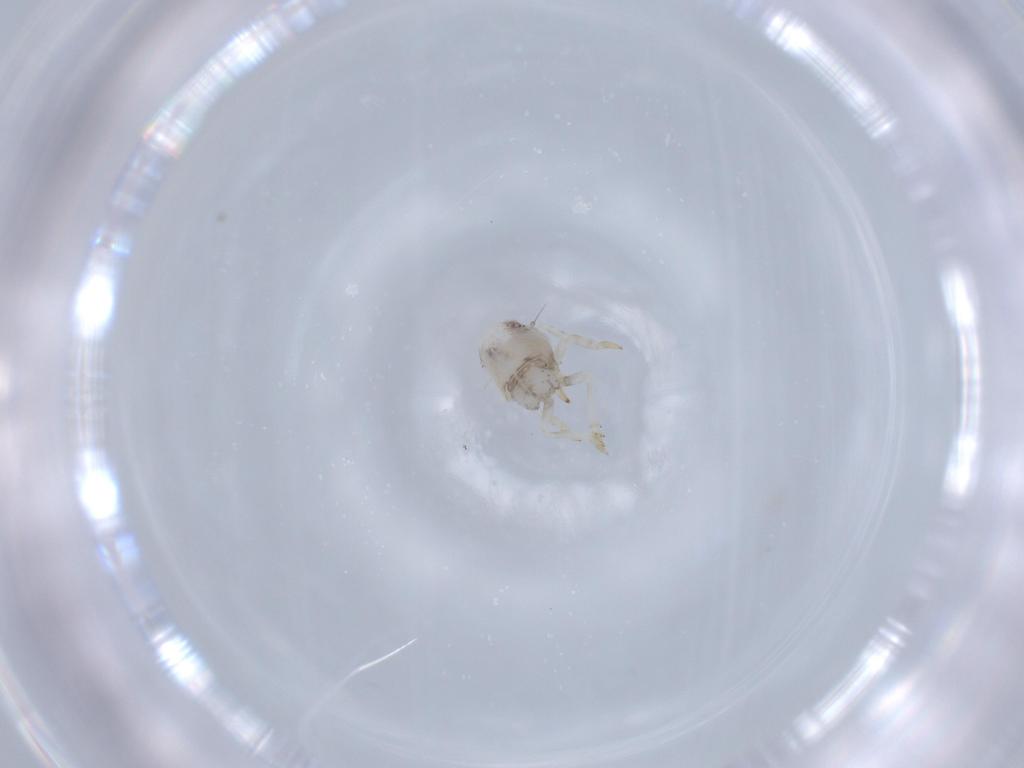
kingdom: Animalia
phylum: Arthropoda
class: Insecta
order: Hemiptera
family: Acanaloniidae
